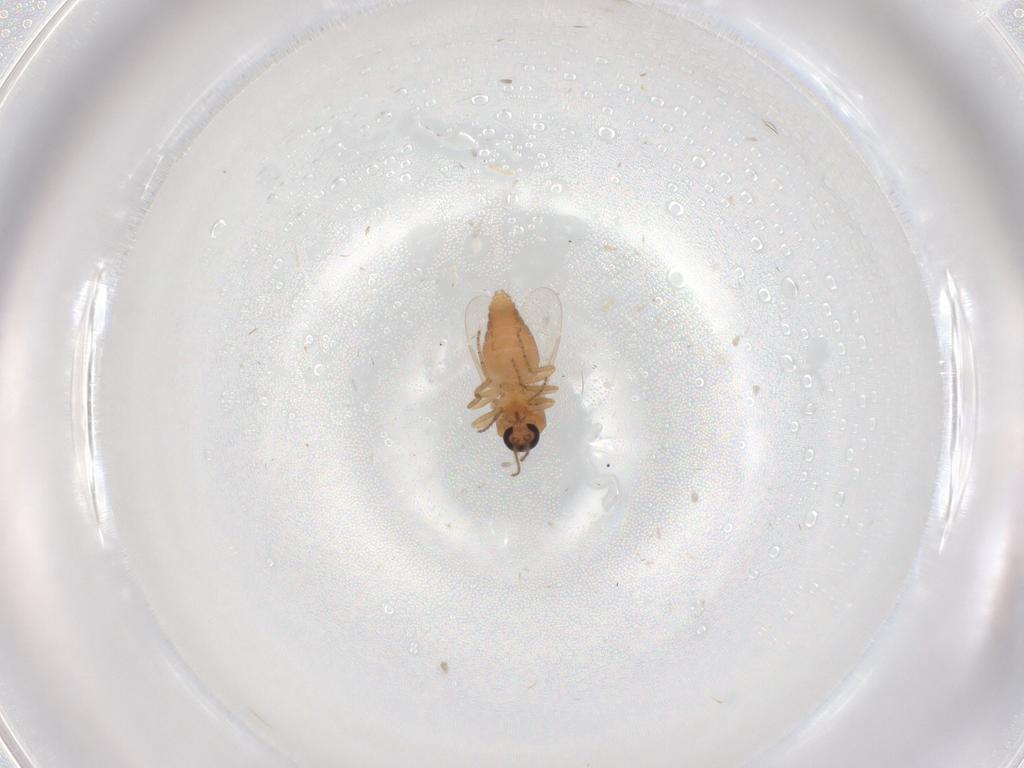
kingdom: Animalia
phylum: Arthropoda
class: Insecta
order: Diptera
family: Ceratopogonidae
